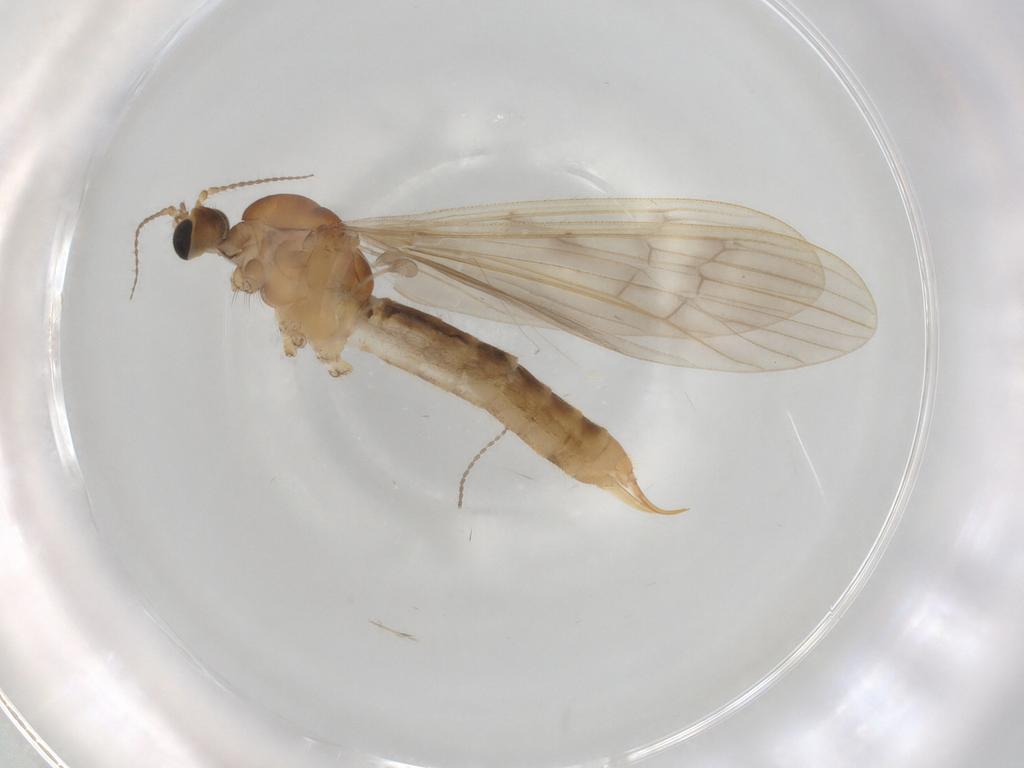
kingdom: Animalia
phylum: Arthropoda
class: Insecta
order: Diptera
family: Limoniidae
